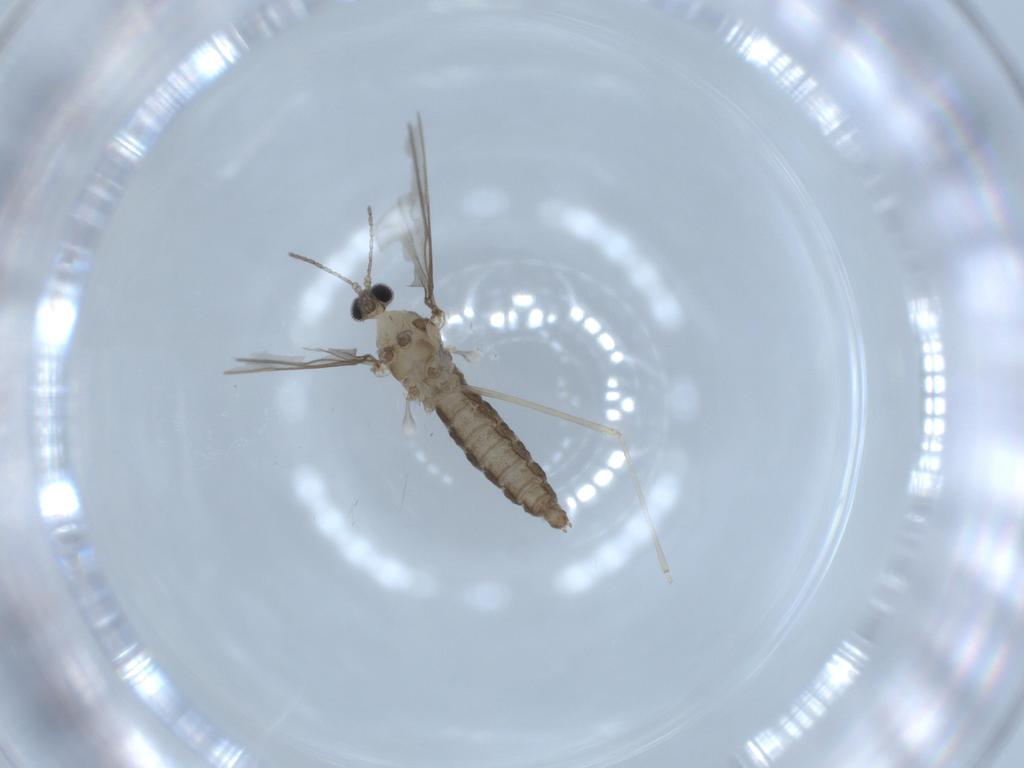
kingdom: Animalia
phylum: Arthropoda
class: Insecta
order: Diptera
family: Cecidomyiidae
